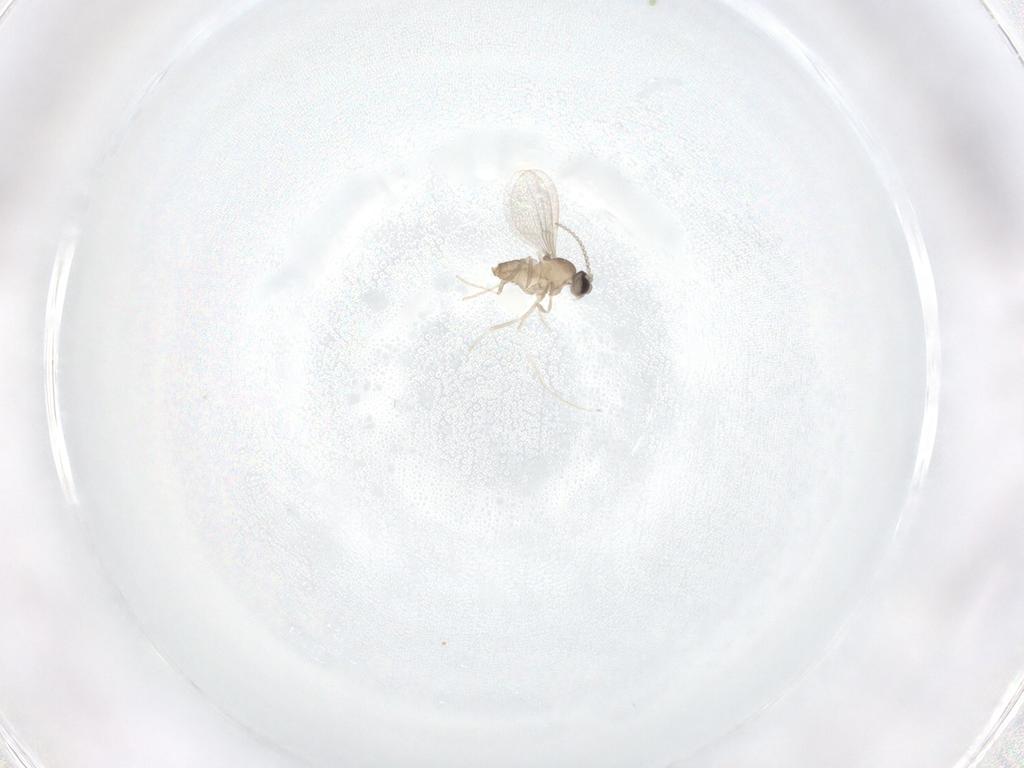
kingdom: Animalia
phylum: Arthropoda
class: Insecta
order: Diptera
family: Cecidomyiidae
